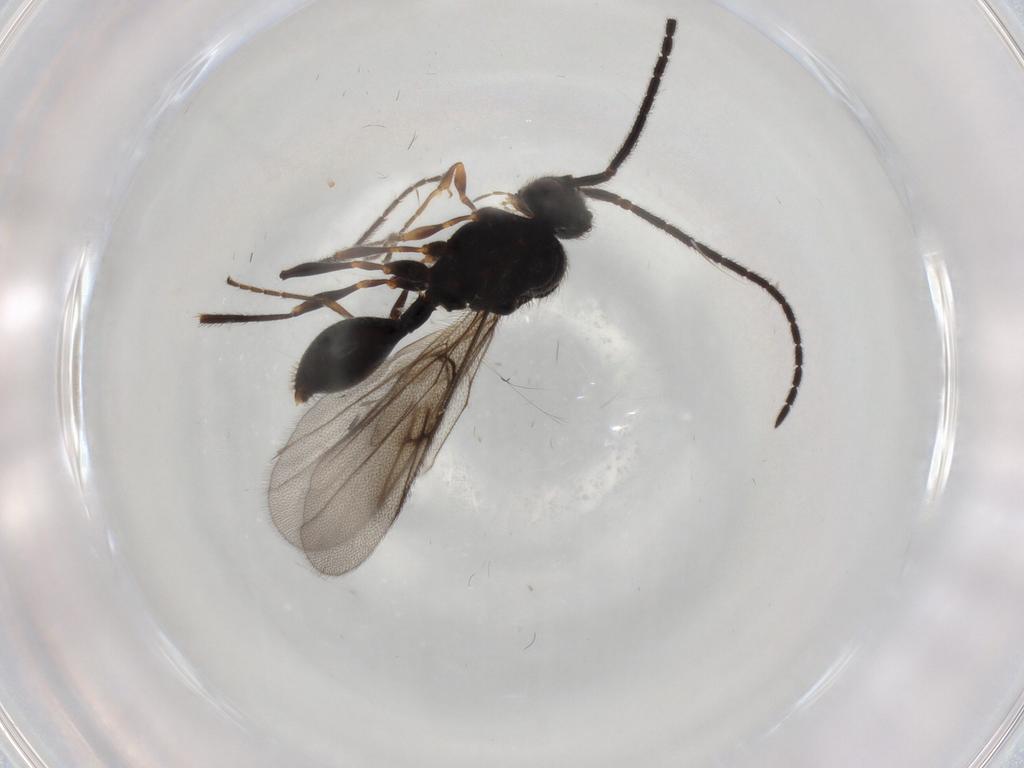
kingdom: Animalia
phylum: Arthropoda
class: Insecta
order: Hymenoptera
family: Diapriidae
